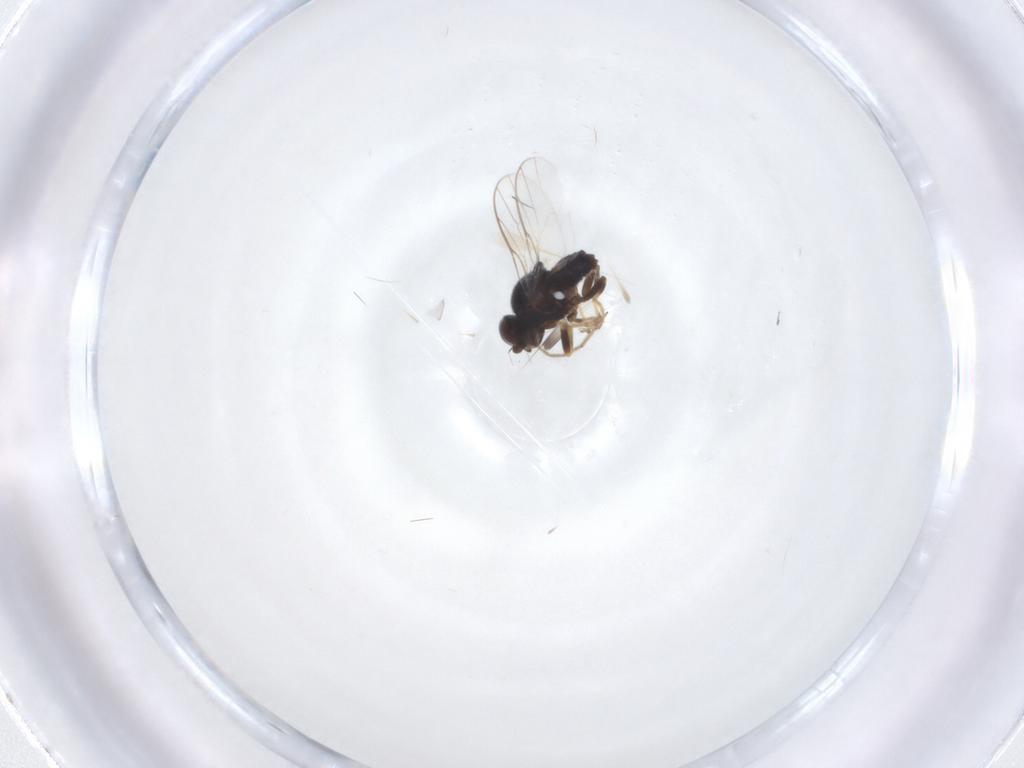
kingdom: Animalia
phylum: Arthropoda
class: Insecta
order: Diptera
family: Chloropidae
